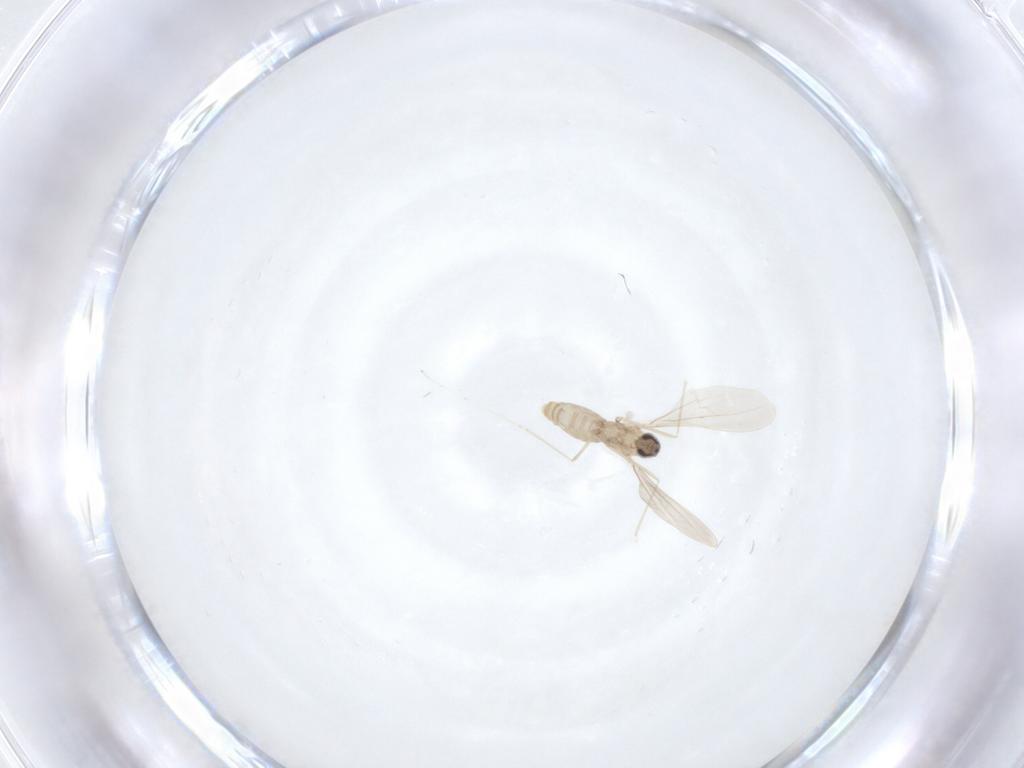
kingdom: Animalia
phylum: Arthropoda
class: Insecta
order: Diptera
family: Cecidomyiidae
